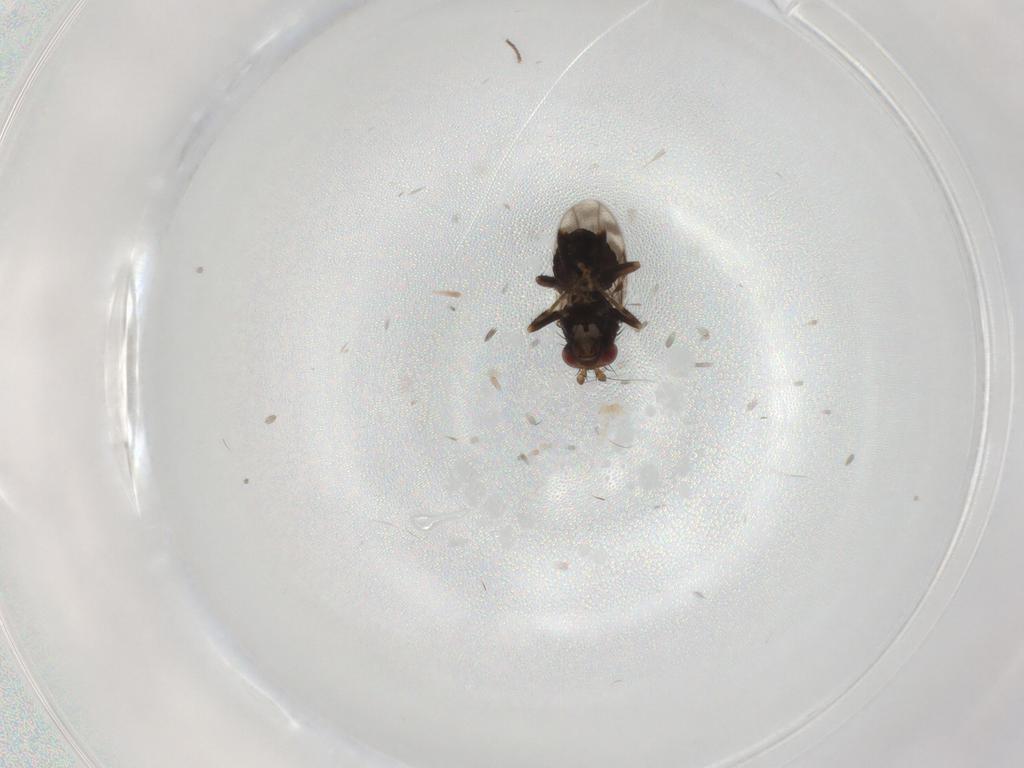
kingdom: Animalia
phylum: Arthropoda
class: Insecta
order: Diptera
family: Sphaeroceridae
